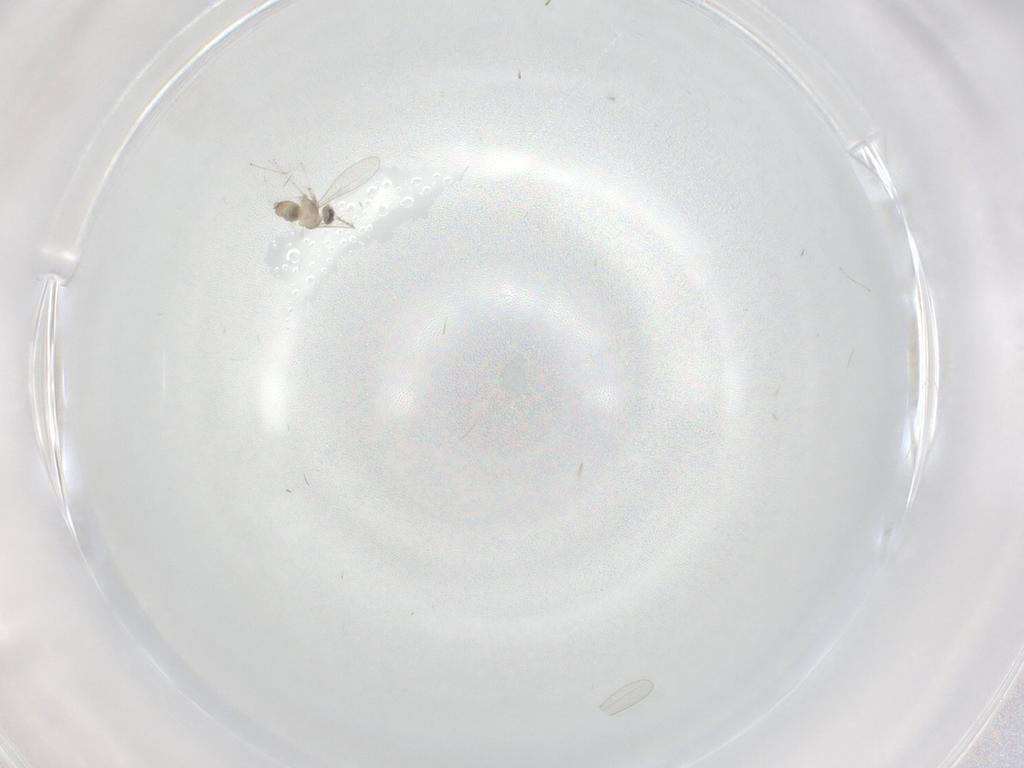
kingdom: Animalia
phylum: Arthropoda
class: Insecta
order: Diptera
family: Cecidomyiidae
